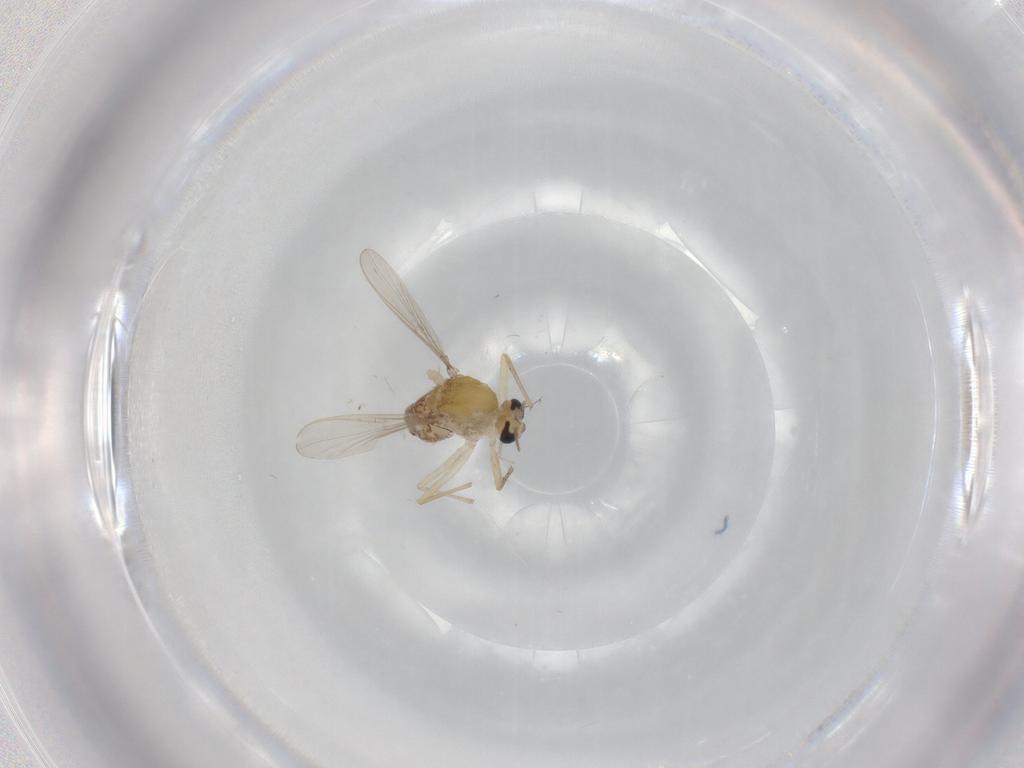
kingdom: Animalia
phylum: Arthropoda
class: Insecta
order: Diptera
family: Chironomidae
